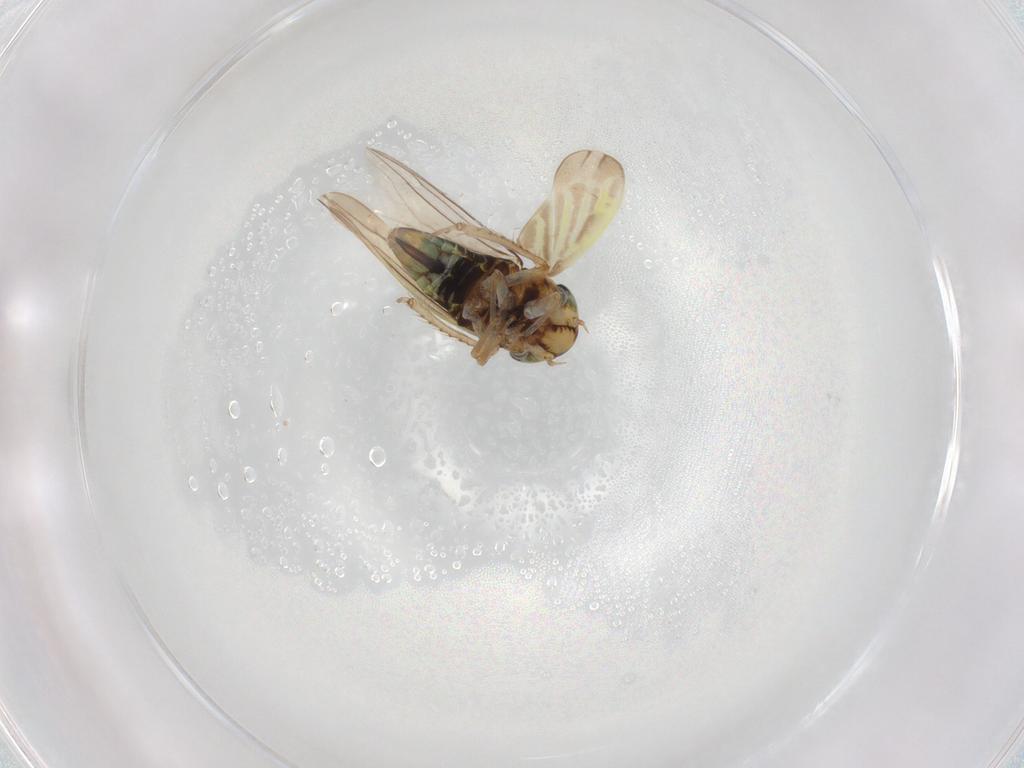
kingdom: Animalia
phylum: Arthropoda
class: Insecta
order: Hemiptera
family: Cicadellidae
